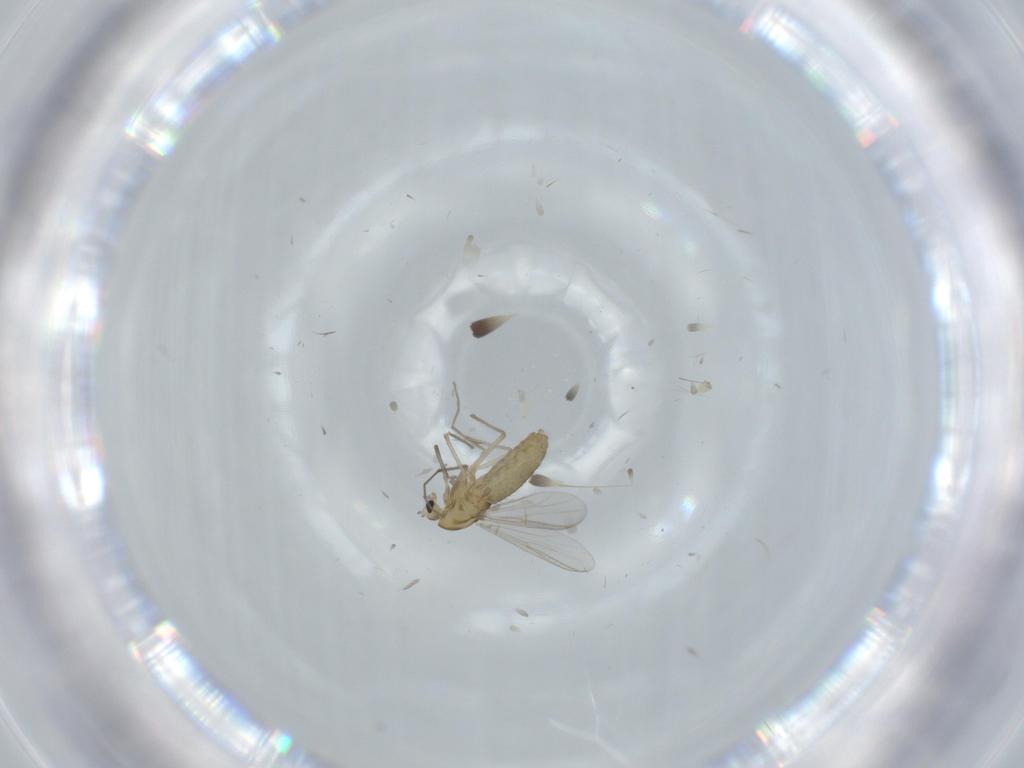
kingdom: Animalia
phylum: Arthropoda
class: Insecta
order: Diptera
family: Chironomidae
